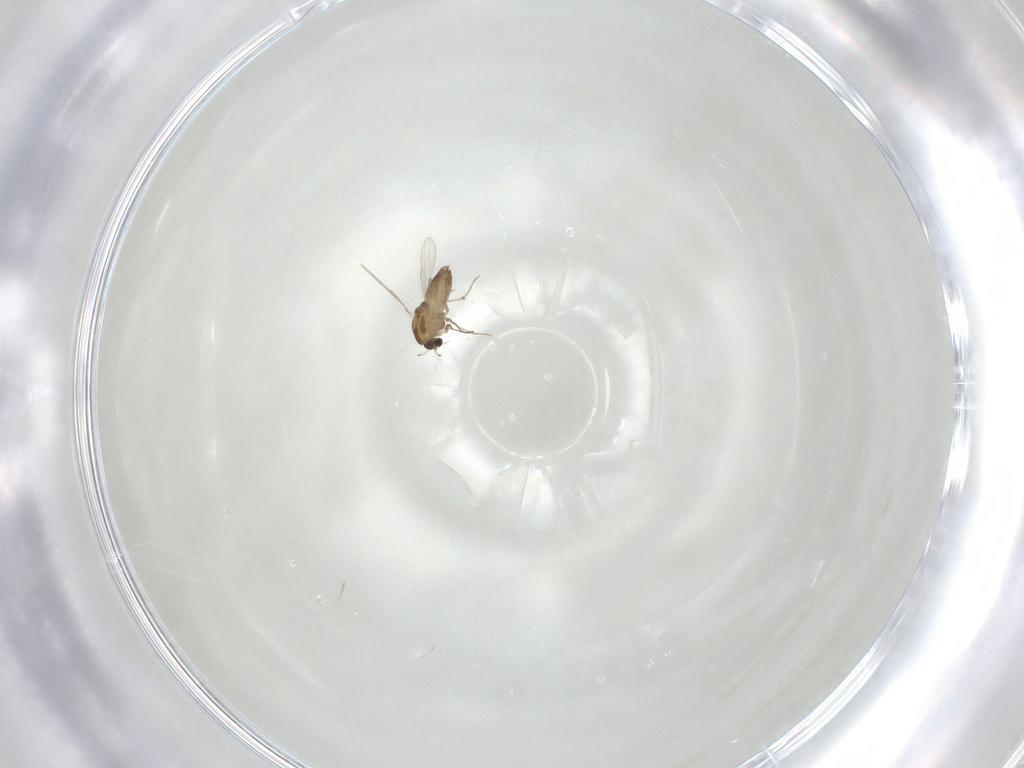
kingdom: Animalia
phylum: Arthropoda
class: Insecta
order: Diptera
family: Chironomidae
